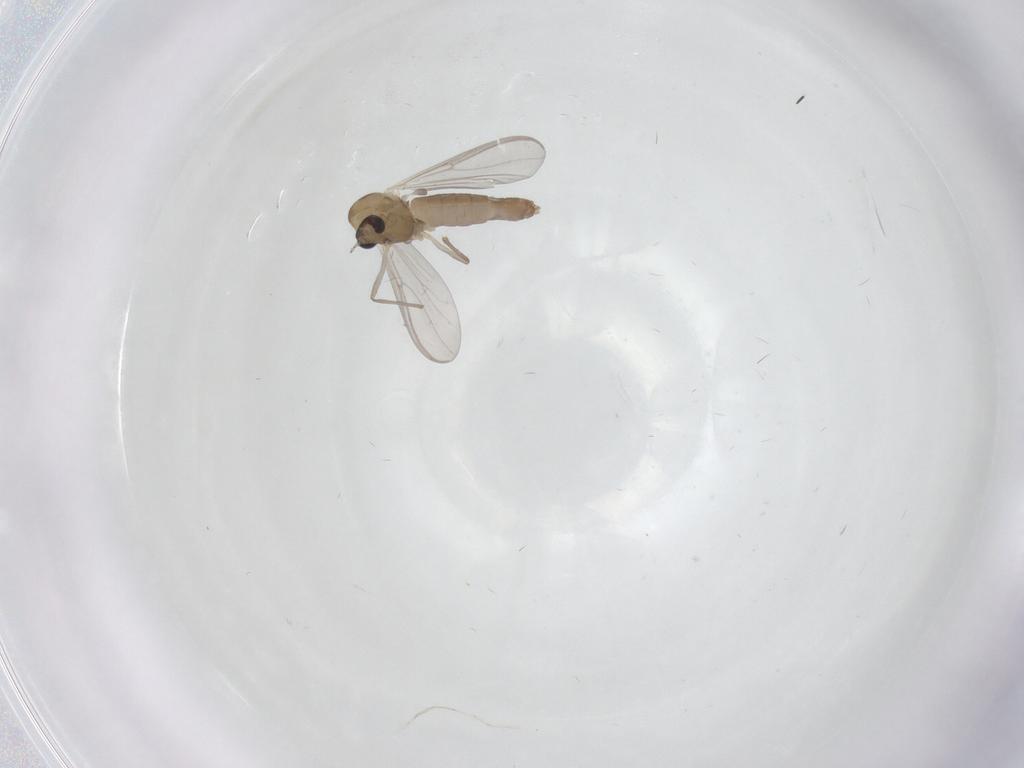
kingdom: Animalia
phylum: Arthropoda
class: Insecta
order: Diptera
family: Chironomidae
